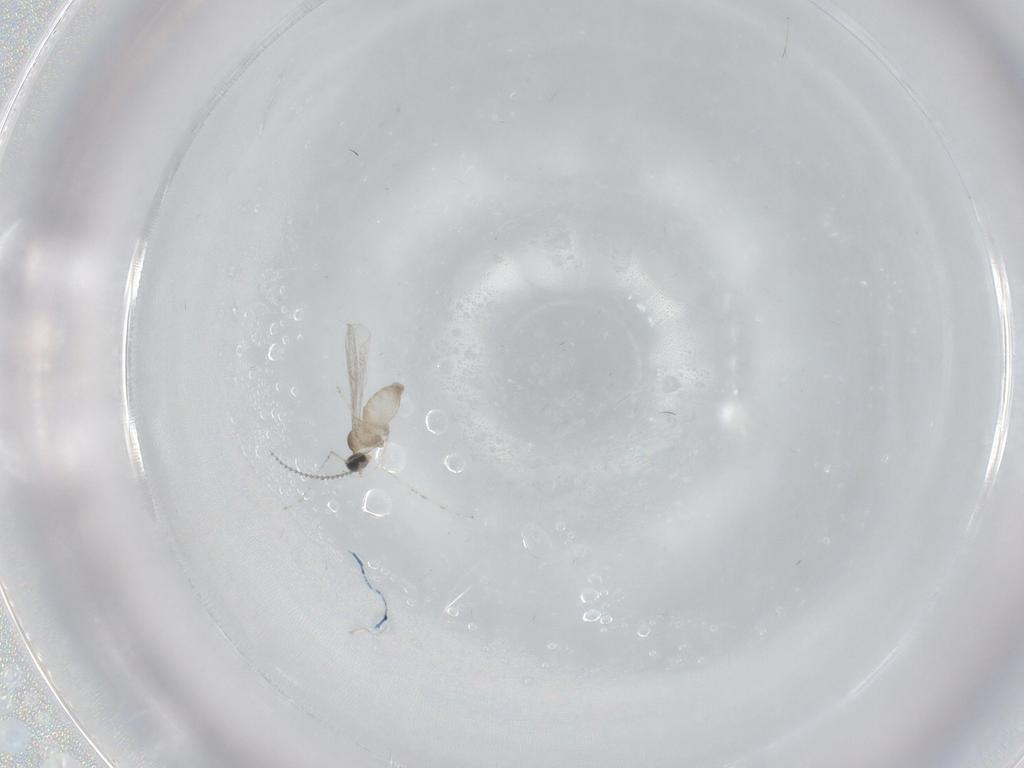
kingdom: Animalia
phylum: Arthropoda
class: Insecta
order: Diptera
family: Cecidomyiidae
